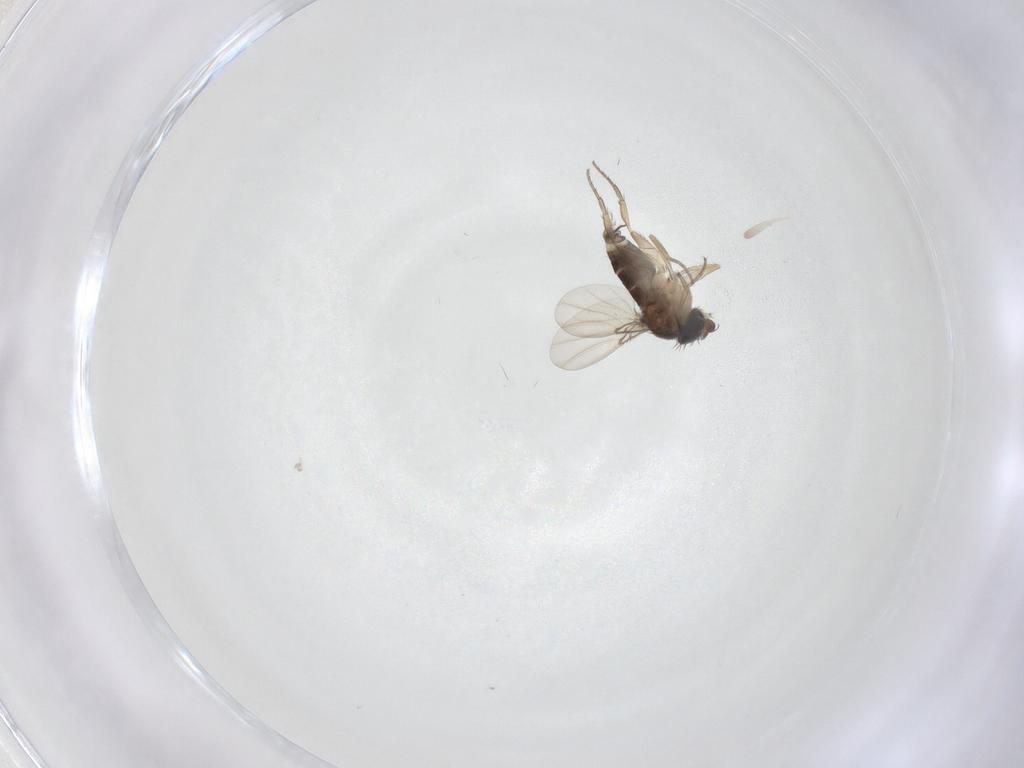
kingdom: Animalia
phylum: Arthropoda
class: Insecta
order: Diptera
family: Phoridae
